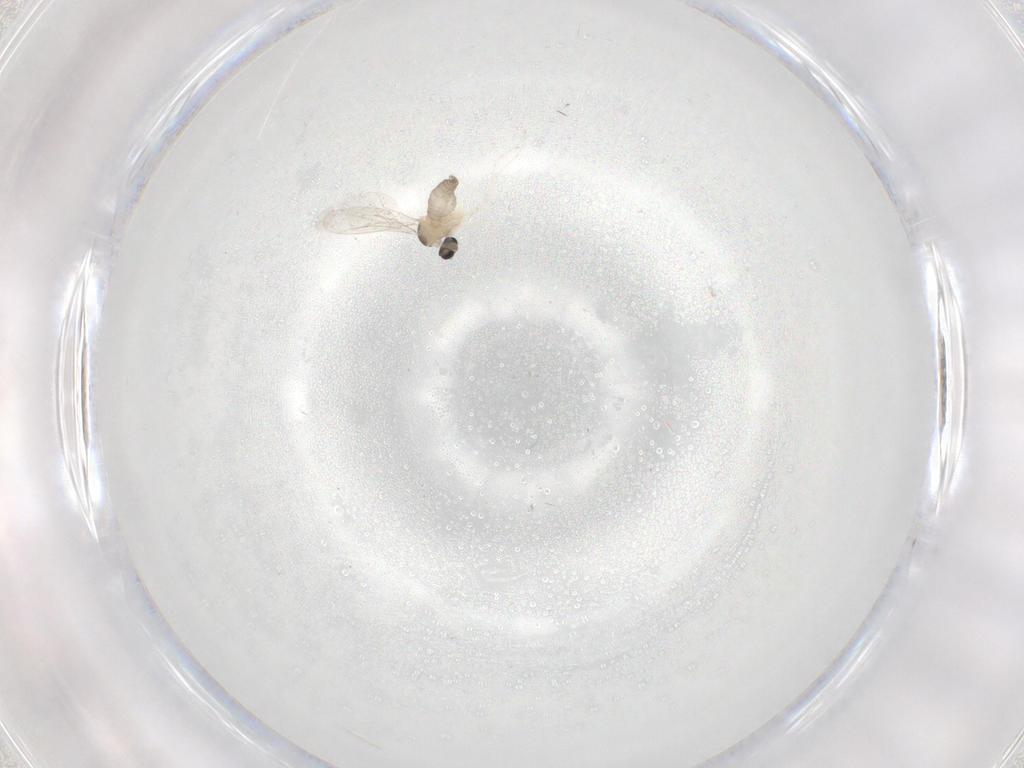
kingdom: Animalia
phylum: Arthropoda
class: Insecta
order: Diptera
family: Cecidomyiidae
